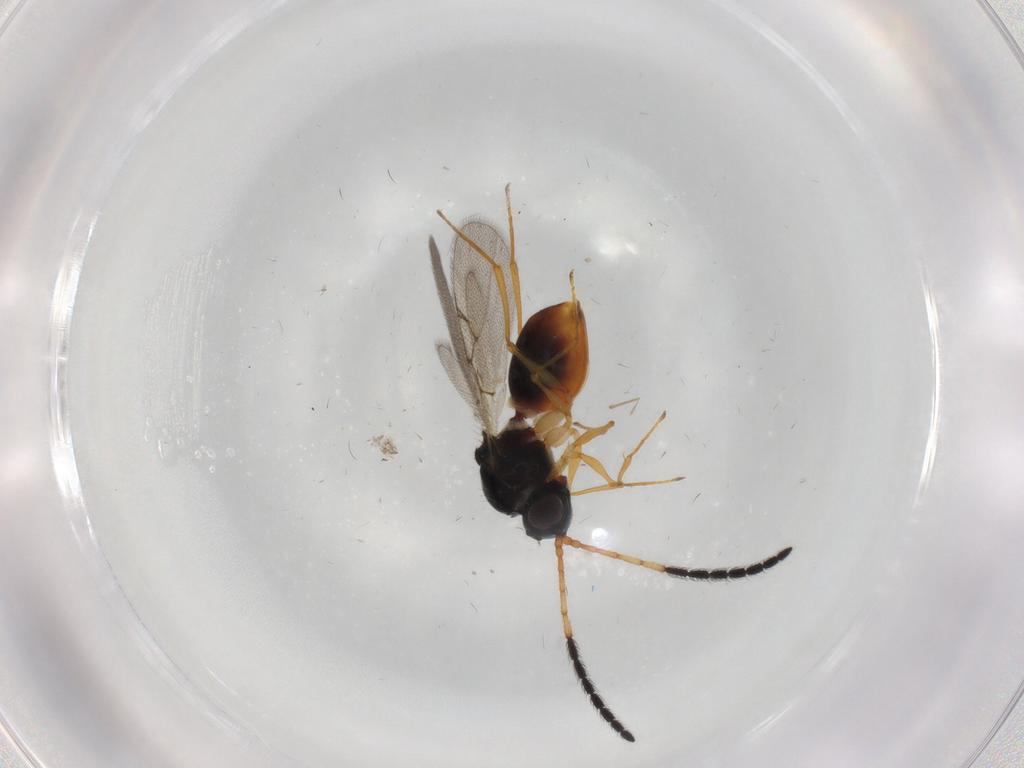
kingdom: Animalia
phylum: Arthropoda
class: Insecta
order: Hymenoptera
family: Figitidae
